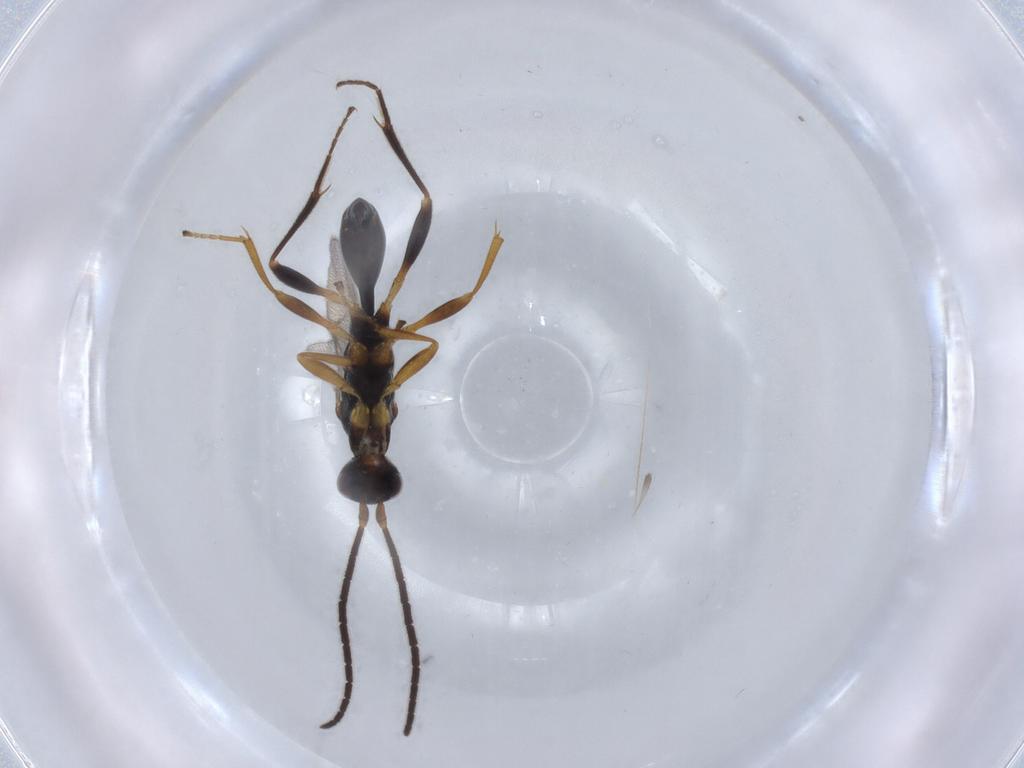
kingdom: Animalia
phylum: Arthropoda
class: Insecta
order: Hymenoptera
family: Proctotrupidae
